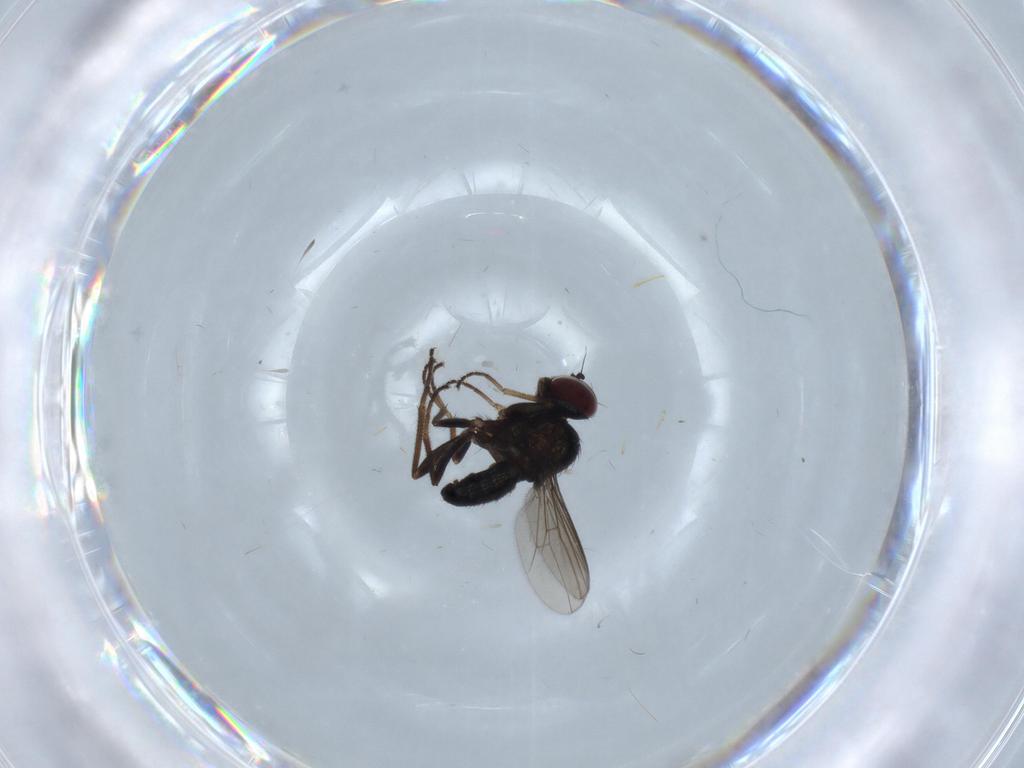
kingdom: Animalia
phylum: Arthropoda
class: Insecta
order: Diptera
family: Dolichopodidae
